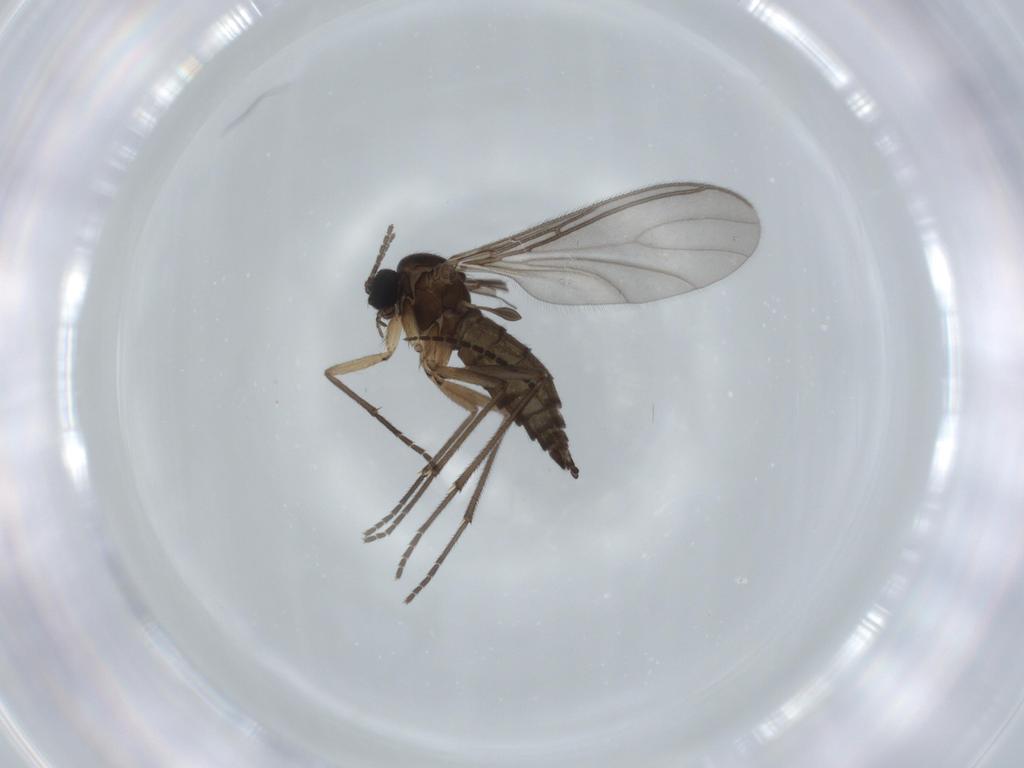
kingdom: Animalia
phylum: Arthropoda
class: Insecta
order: Diptera
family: Sciaridae
